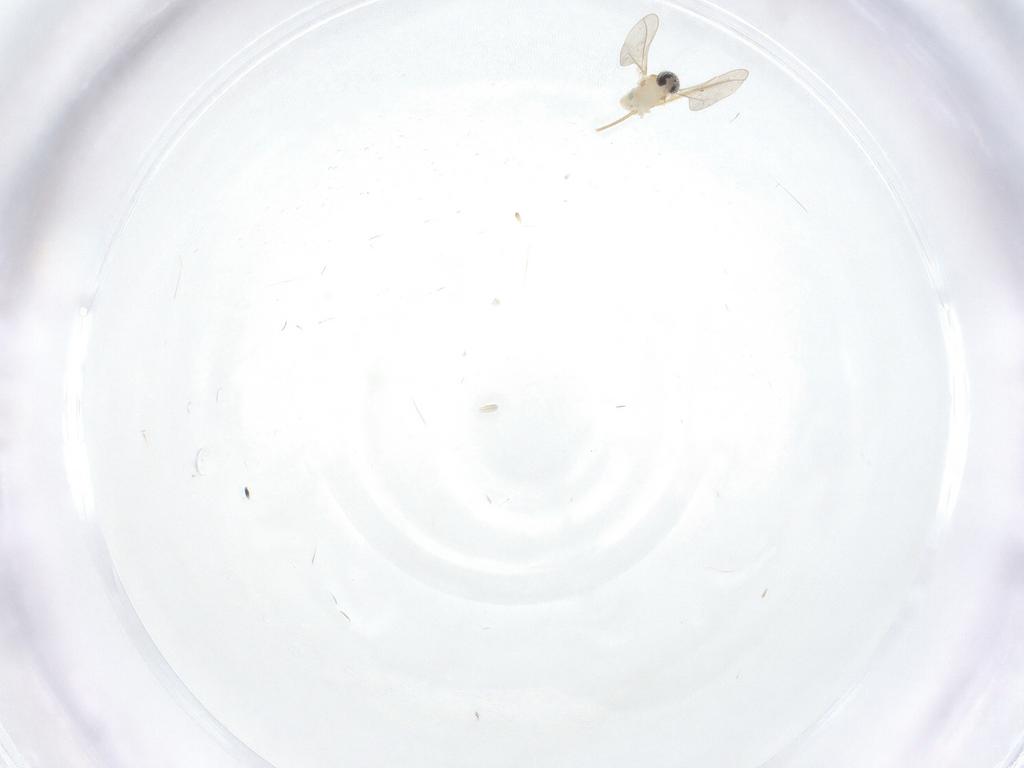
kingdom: Animalia
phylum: Arthropoda
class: Insecta
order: Diptera
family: Cecidomyiidae
